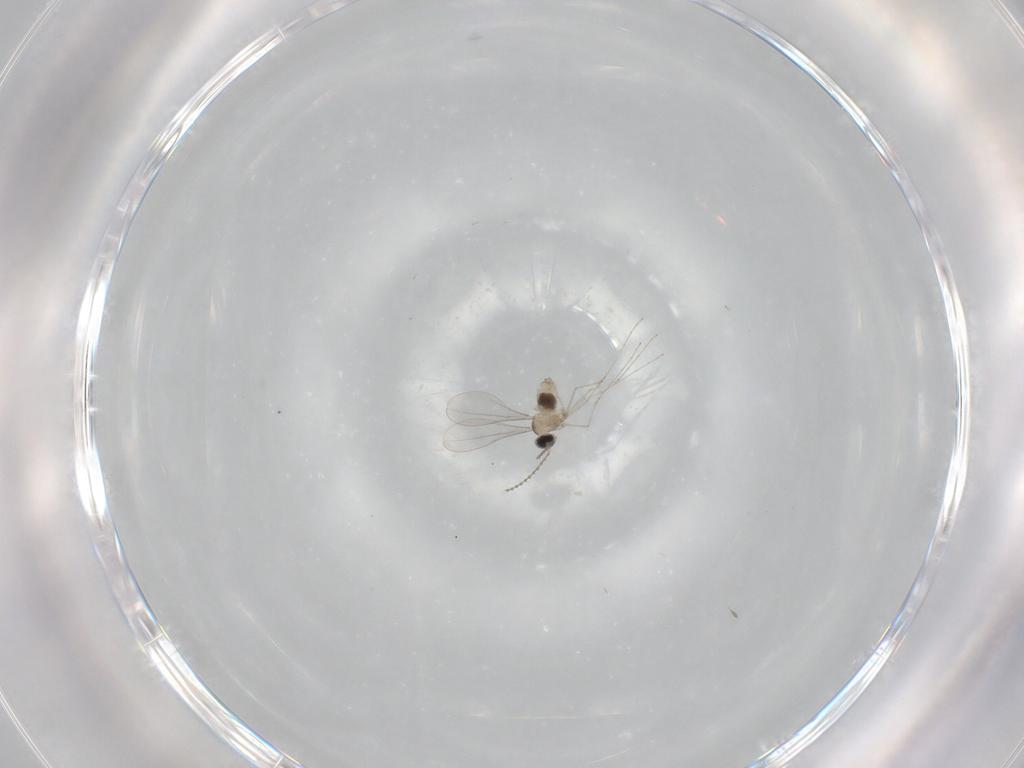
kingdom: Animalia
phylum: Arthropoda
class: Insecta
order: Diptera
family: Cecidomyiidae
